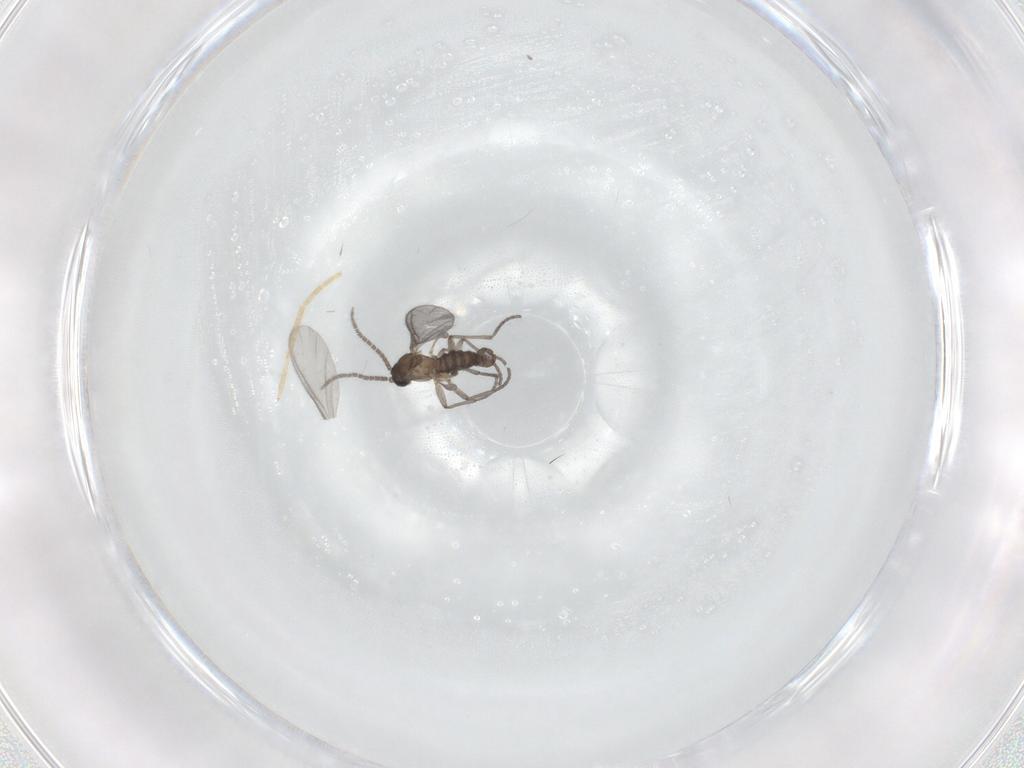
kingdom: Animalia
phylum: Arthropoda
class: Insecta
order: Diptera
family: Sciaridae
